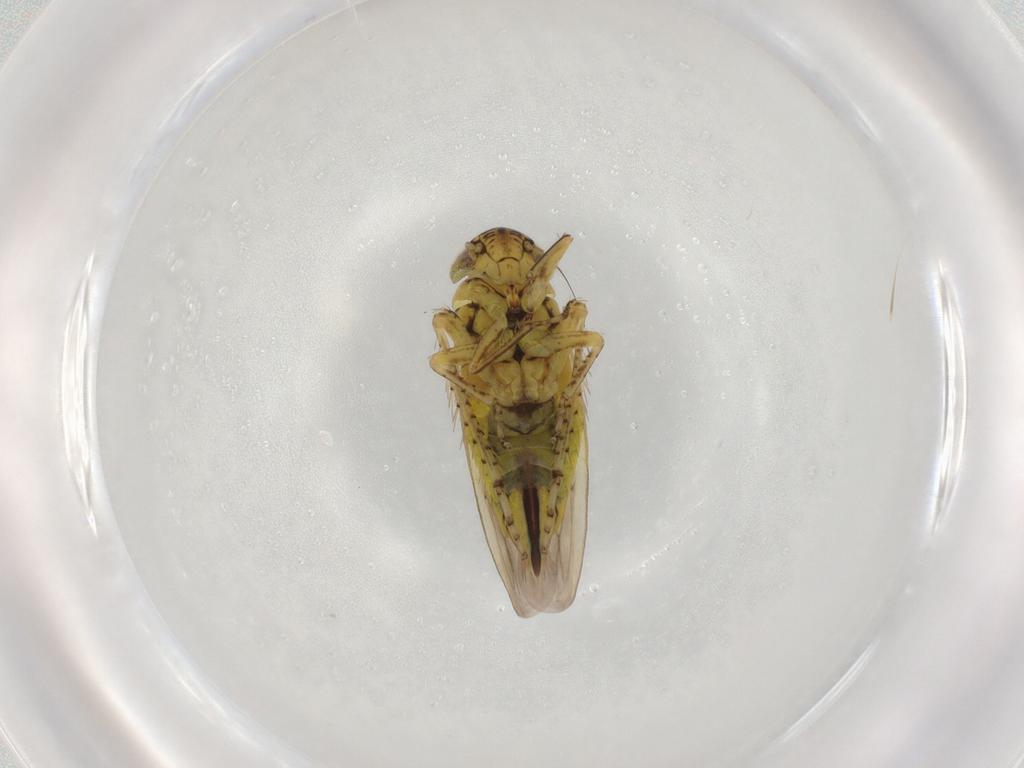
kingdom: Animalia
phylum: Arthropoda
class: Insecta
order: Hemiptera
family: Cicadellidae
